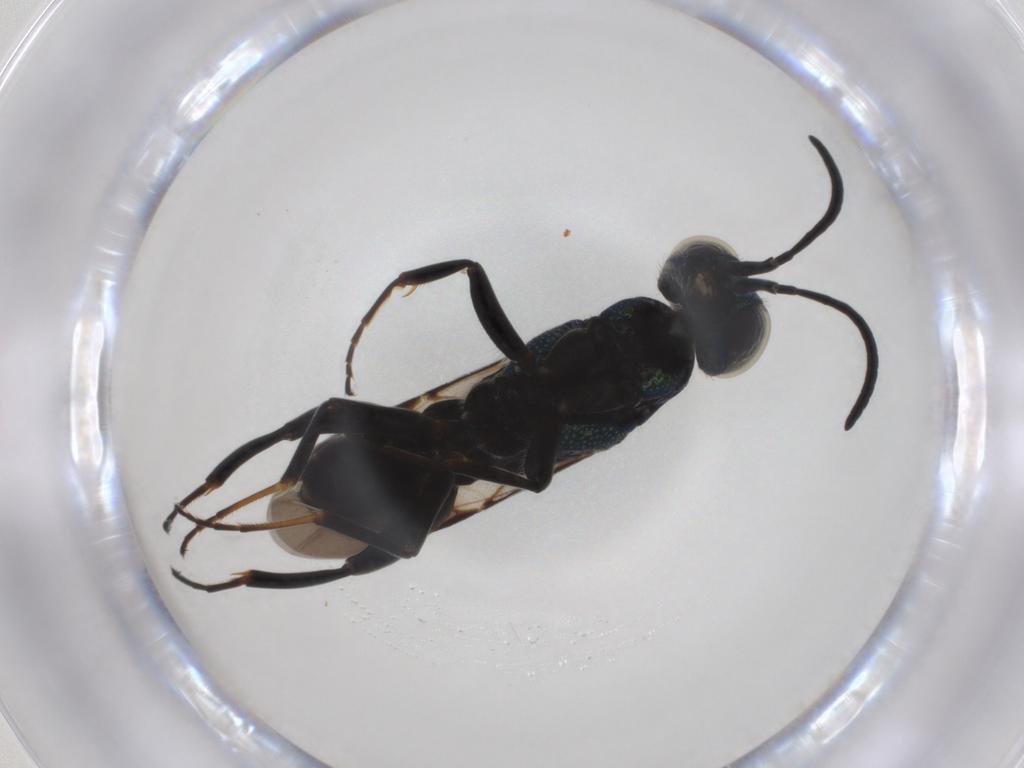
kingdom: Animalia
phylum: Arthropoda
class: Insecta
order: Hymenoptera
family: Chrysididae
